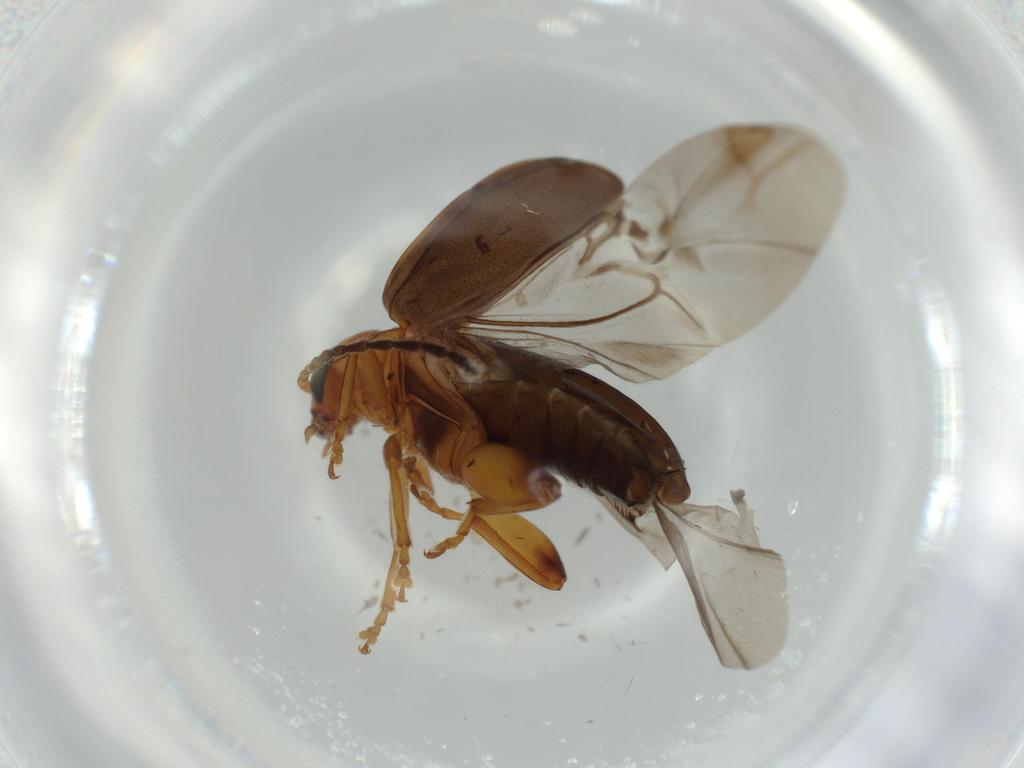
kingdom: Animalia
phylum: Arthropoda
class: Insecta
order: Coleoptera
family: Chrysomelidae
